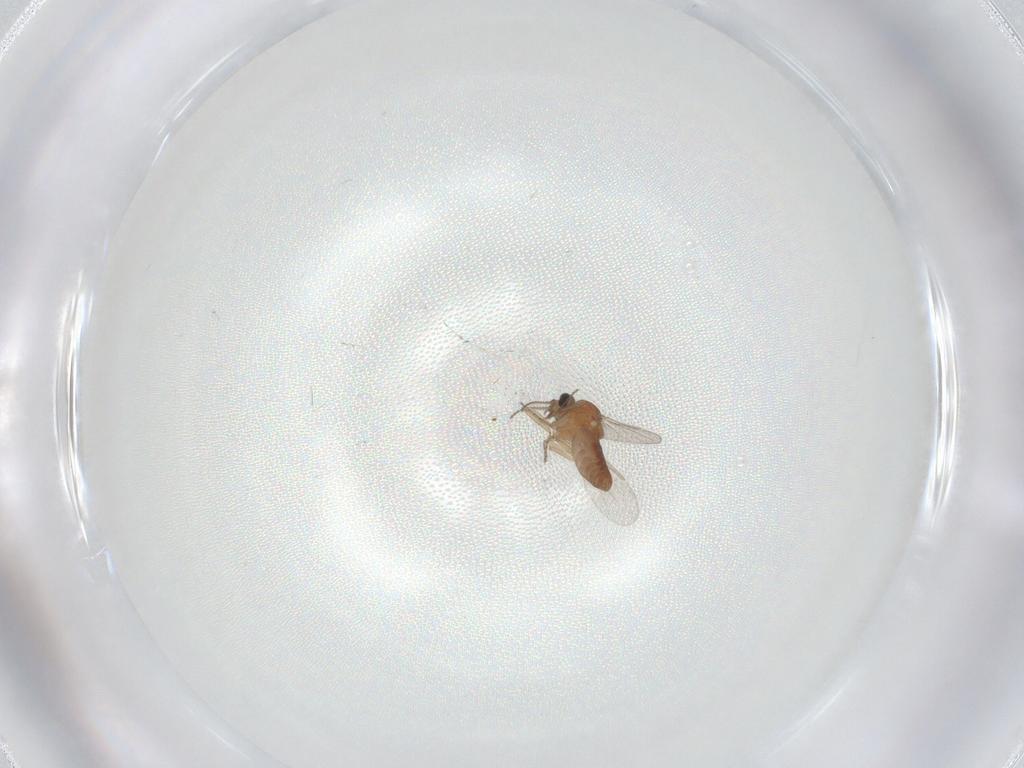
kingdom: Animalia
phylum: Arthropoda
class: Insecta
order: Diptera
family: Ceratopogonidae
